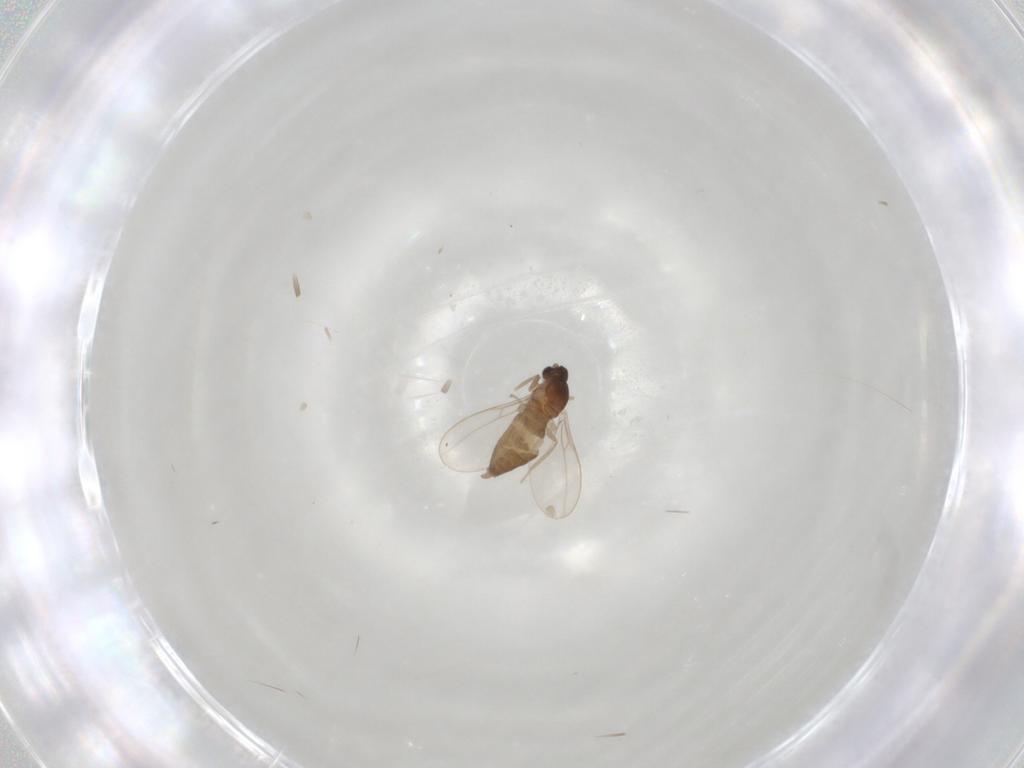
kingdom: Animalia
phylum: Arthropoda
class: Insecta
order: Diptera
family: Cecidomyiidae
